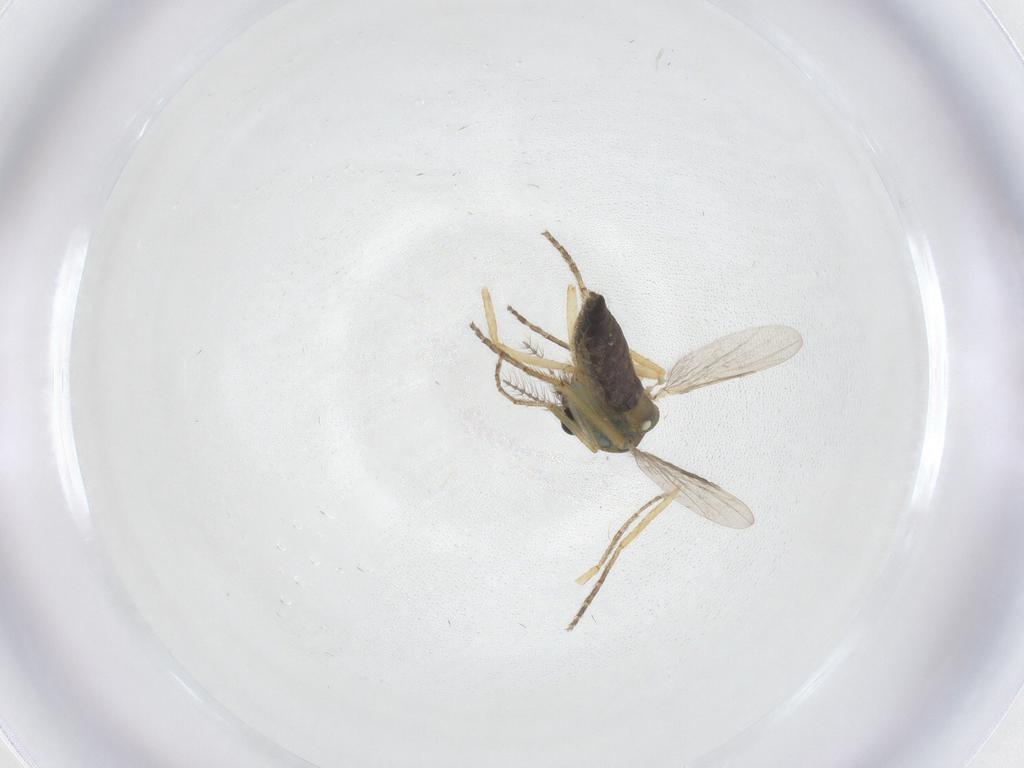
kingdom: Animalia
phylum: Arthropoda
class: Insecta
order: Diptera
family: Ceratopogonidae
